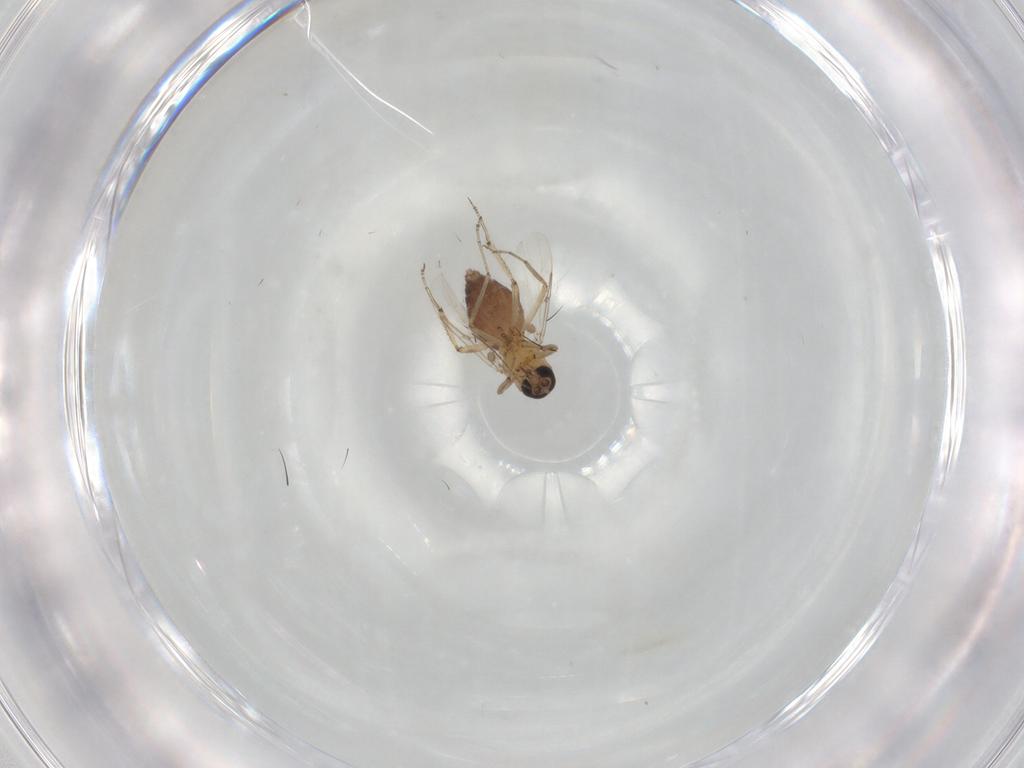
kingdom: Animalia
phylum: Arthropoda
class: Insecta
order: Diptera
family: Ceratopogonidae
